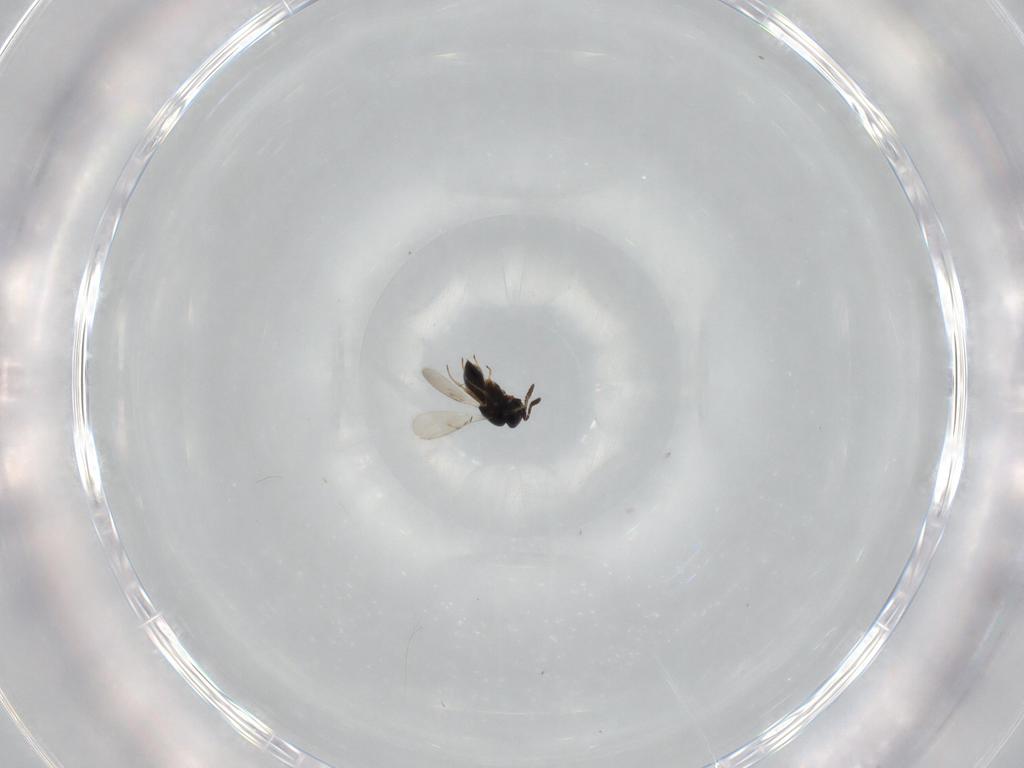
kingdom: Animalia
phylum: Arthropoda
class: Insecta
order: Hymenoptera
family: Scelionidae
